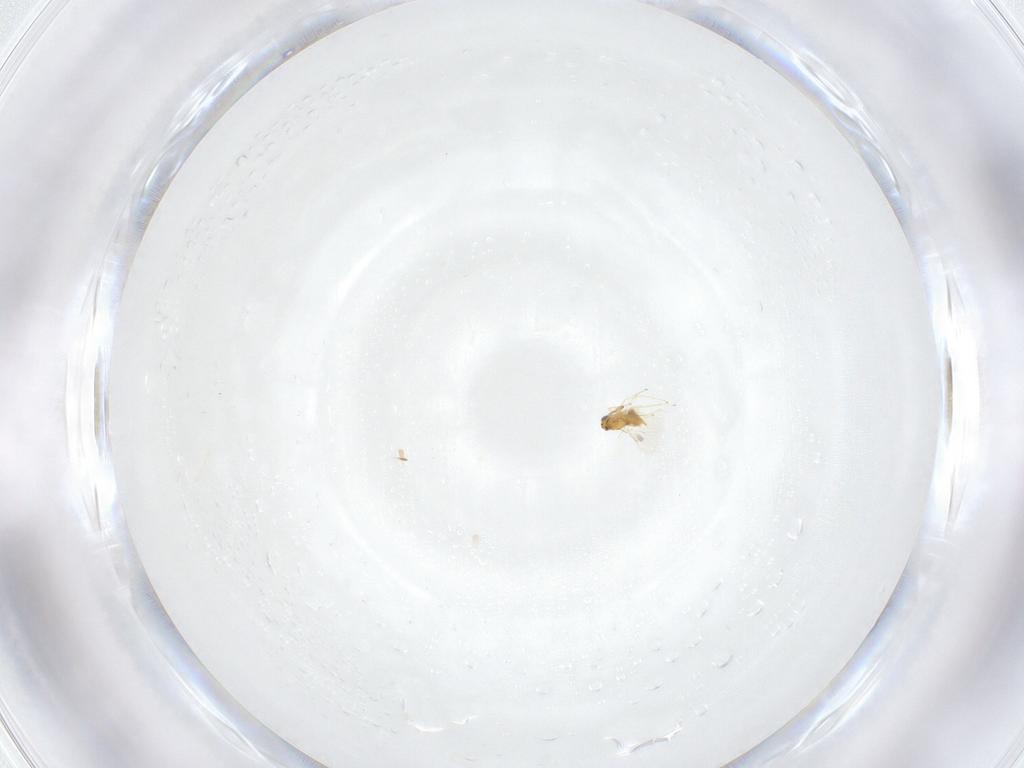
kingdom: Animalia
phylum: Arthropoda
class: Insecta
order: Hymenoptera
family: Aphelinidae
